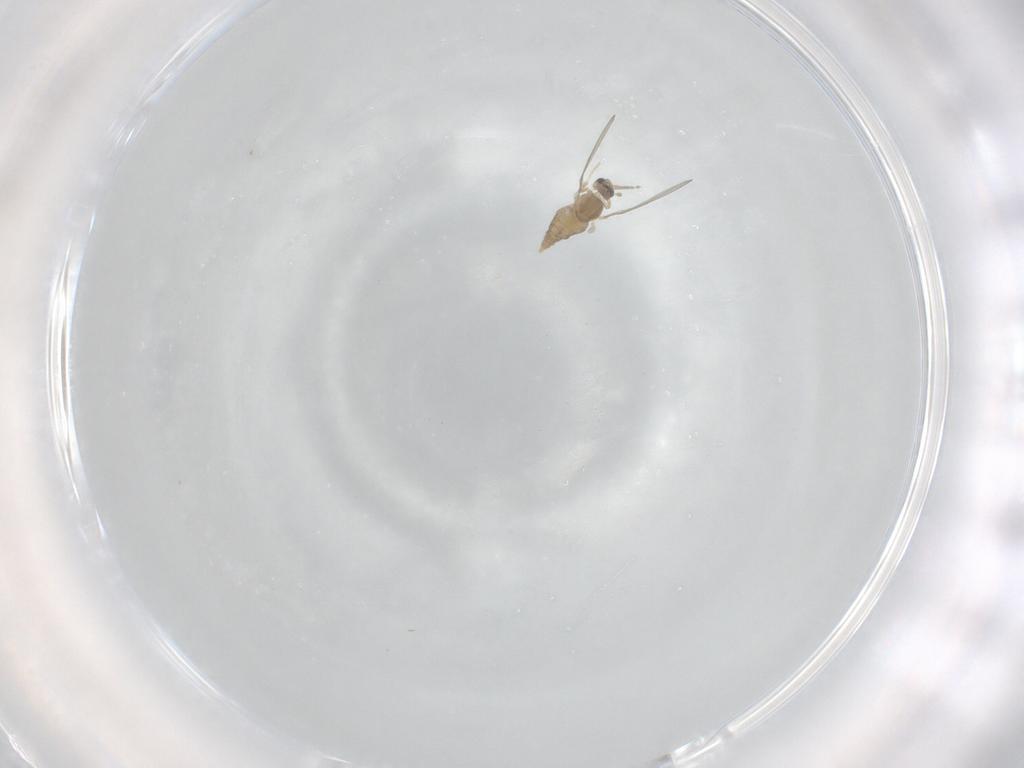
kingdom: Animalia
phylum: Arthropoda
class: Insecta
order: Diptera
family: Cecidomyiidae
